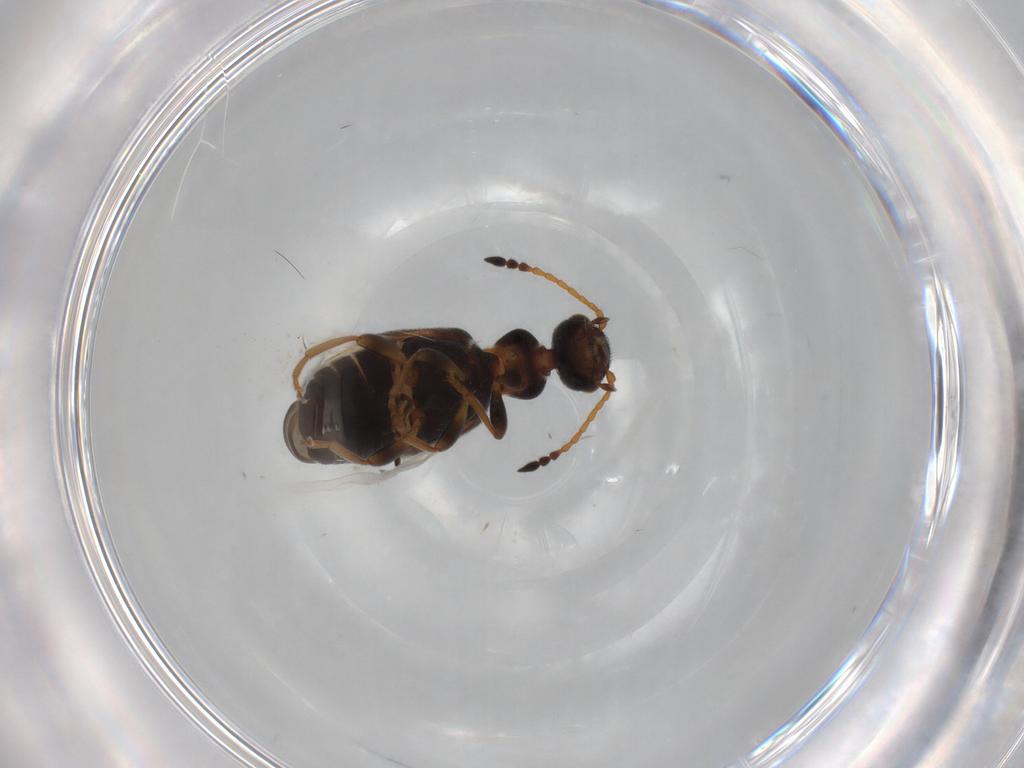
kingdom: Animalia
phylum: Arthropoda
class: Insecta
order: Coleoptera
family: Anthicidae
